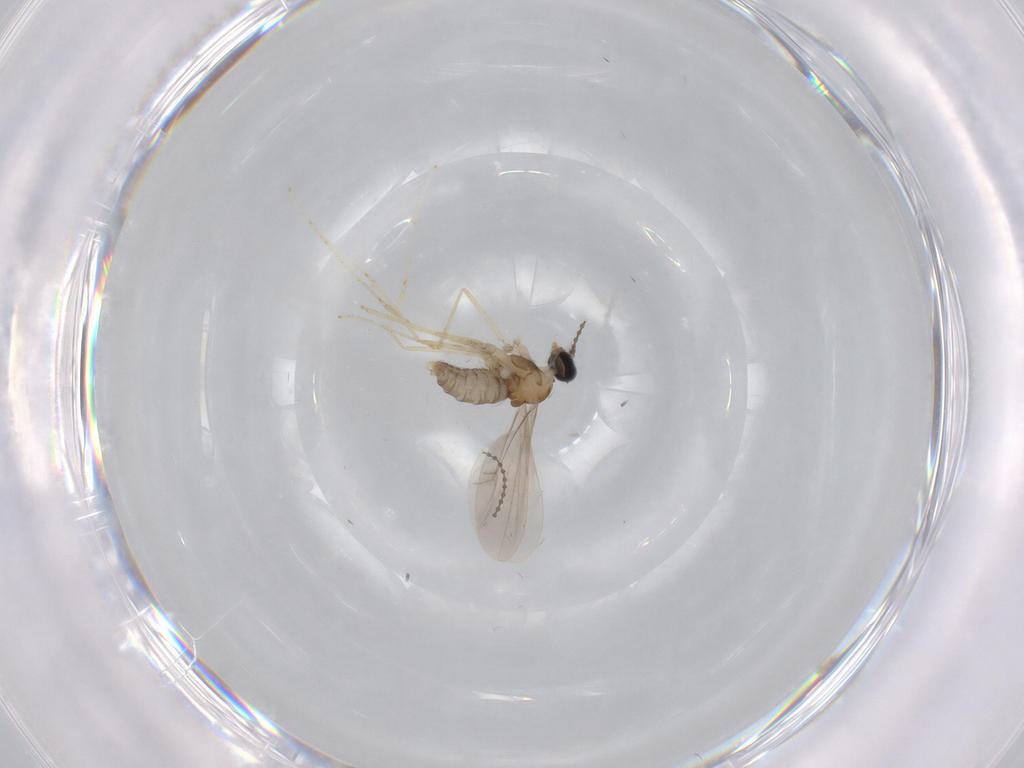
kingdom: Animalia
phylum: Arthropoda
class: Insecta
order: Diptera
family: Cecidomyiidae
